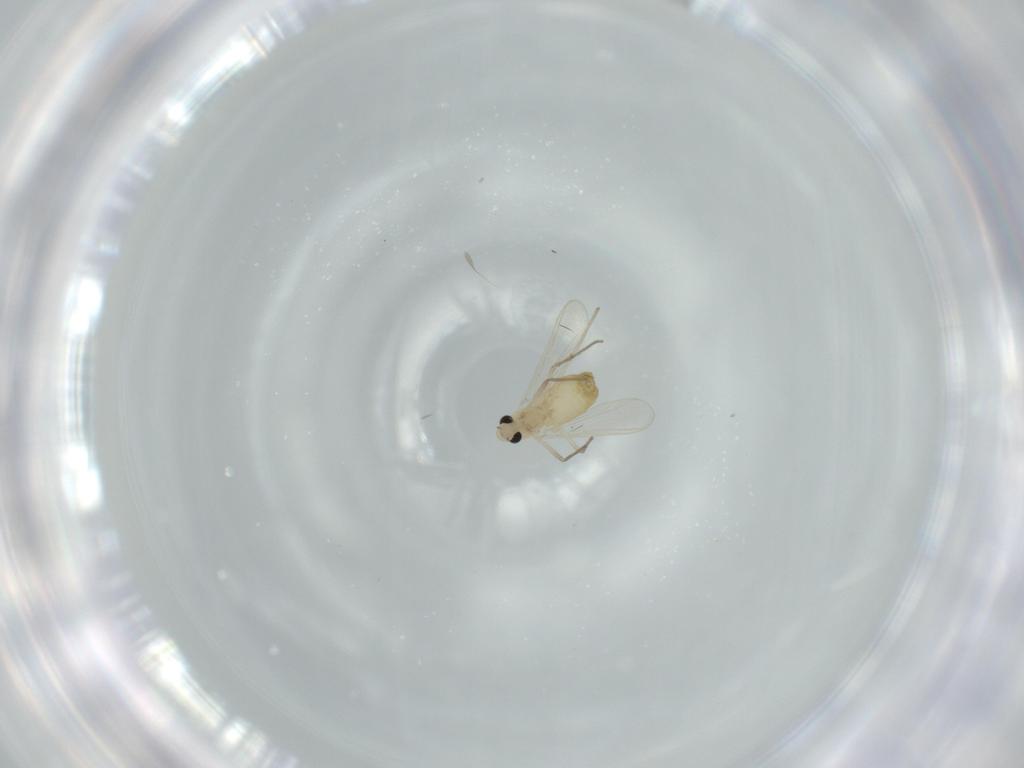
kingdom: Animalia
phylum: Arthropoda
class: Insecta
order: Diptera
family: Chironomidae
